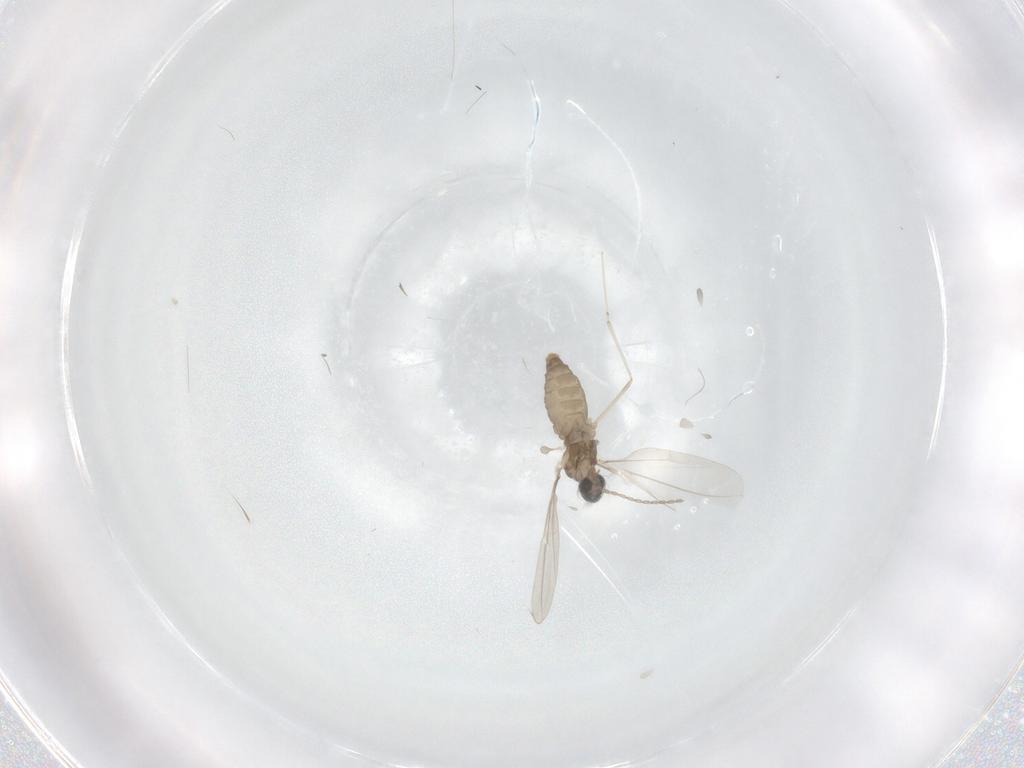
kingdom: Animalia
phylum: Arthropoda
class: Insecta
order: Diptera
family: Cecidomyiidae
